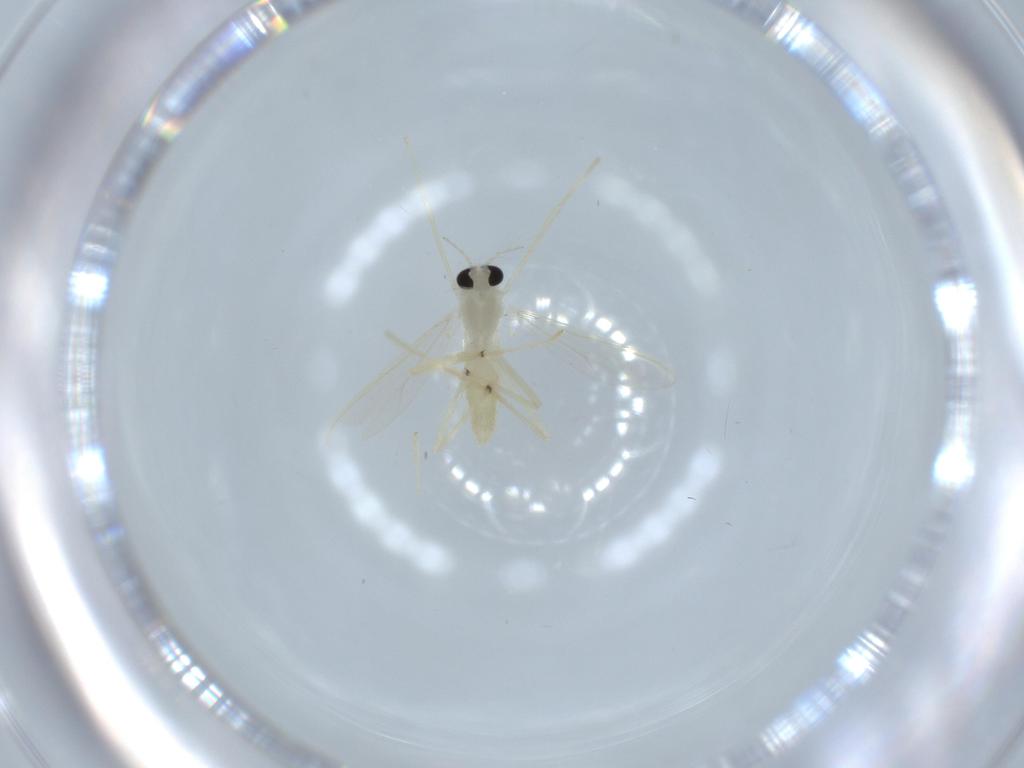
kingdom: Animalia
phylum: Arthropoda
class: Insecta
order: Diptera
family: Chironomidae
